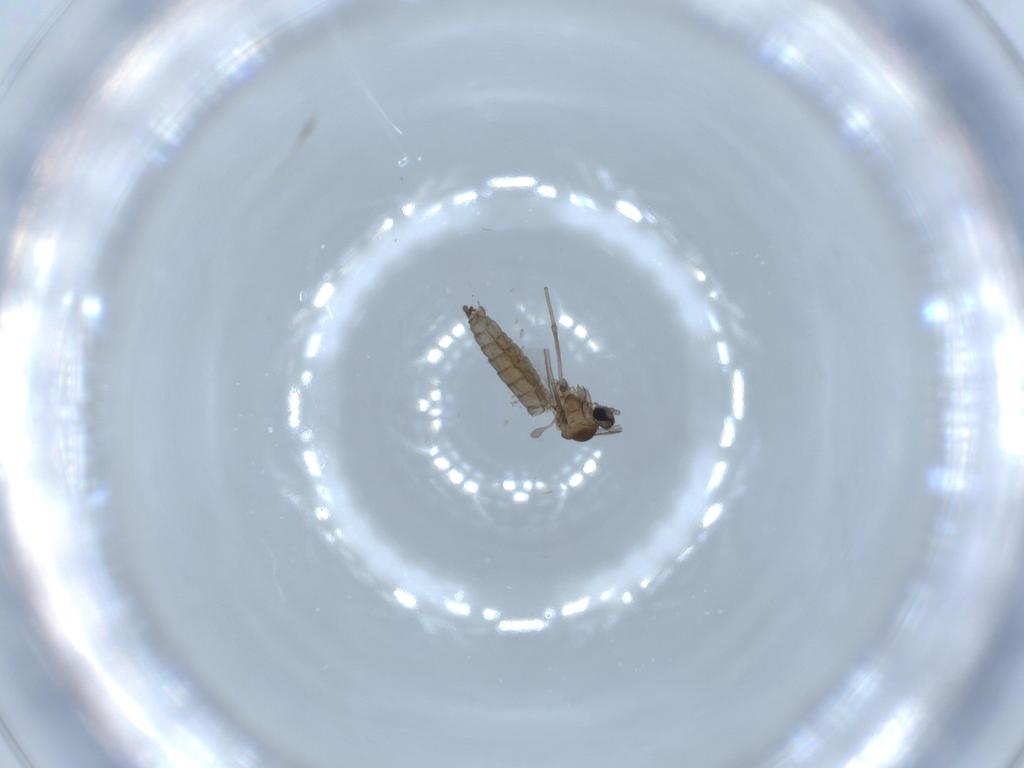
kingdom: Animalia
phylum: Arthropoda
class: Insecta
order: Diptera
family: Cecidomyiidae
